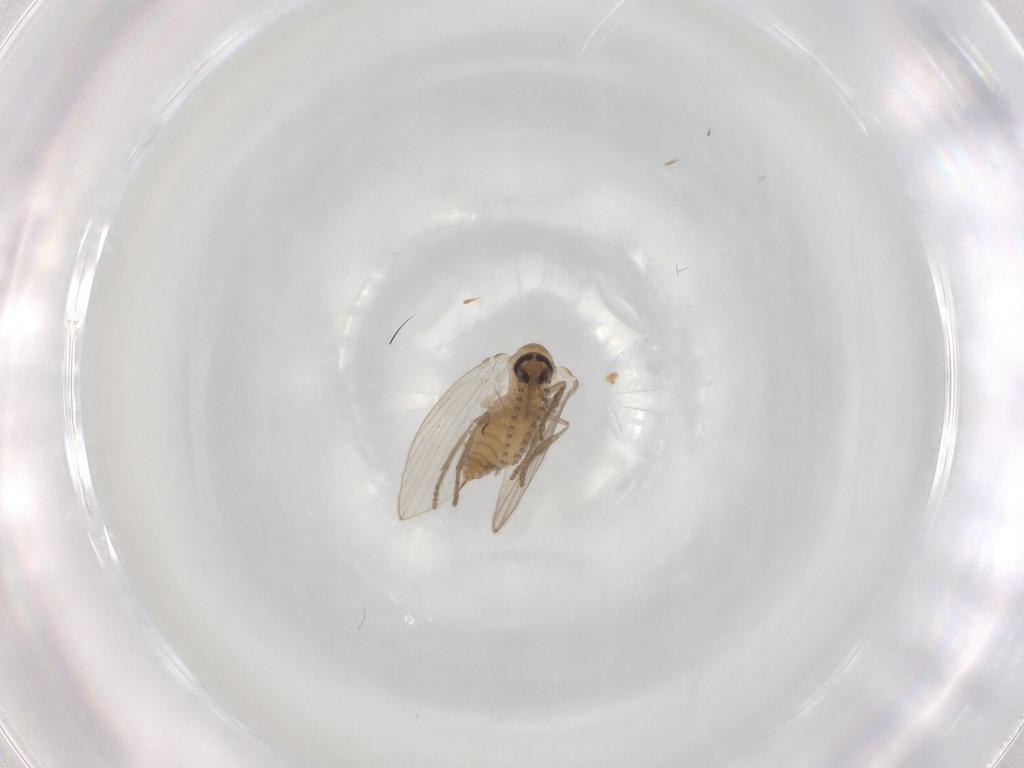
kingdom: Animalia
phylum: Arthropoda
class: Insecta
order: Diptera
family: Psychodidae
